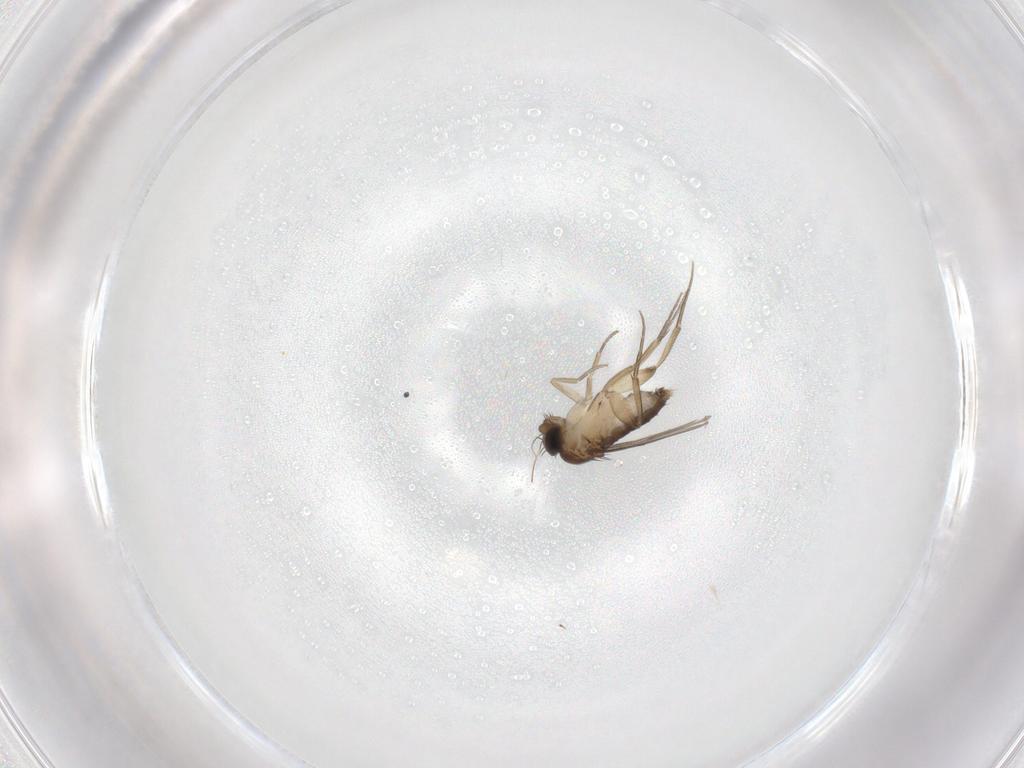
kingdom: Animalia
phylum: Arthropoda
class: Insecta
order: Diptera
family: Phoridae
